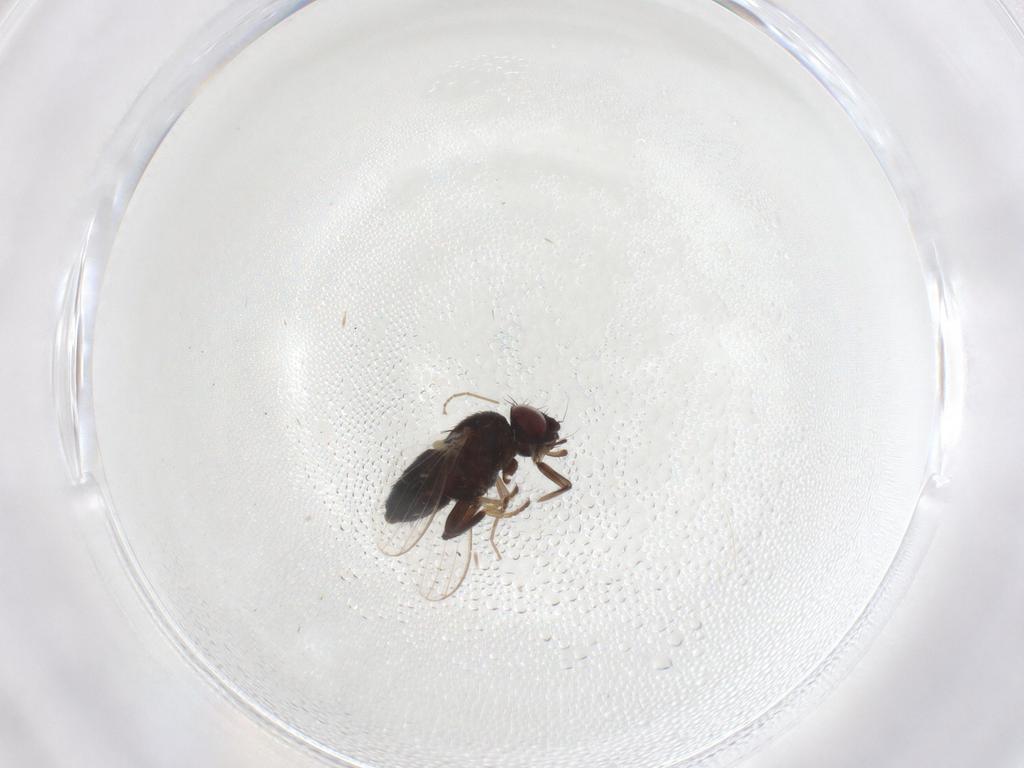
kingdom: Animalia
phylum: Arthropoda
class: Insecta
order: Diptera
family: Milichiidae
